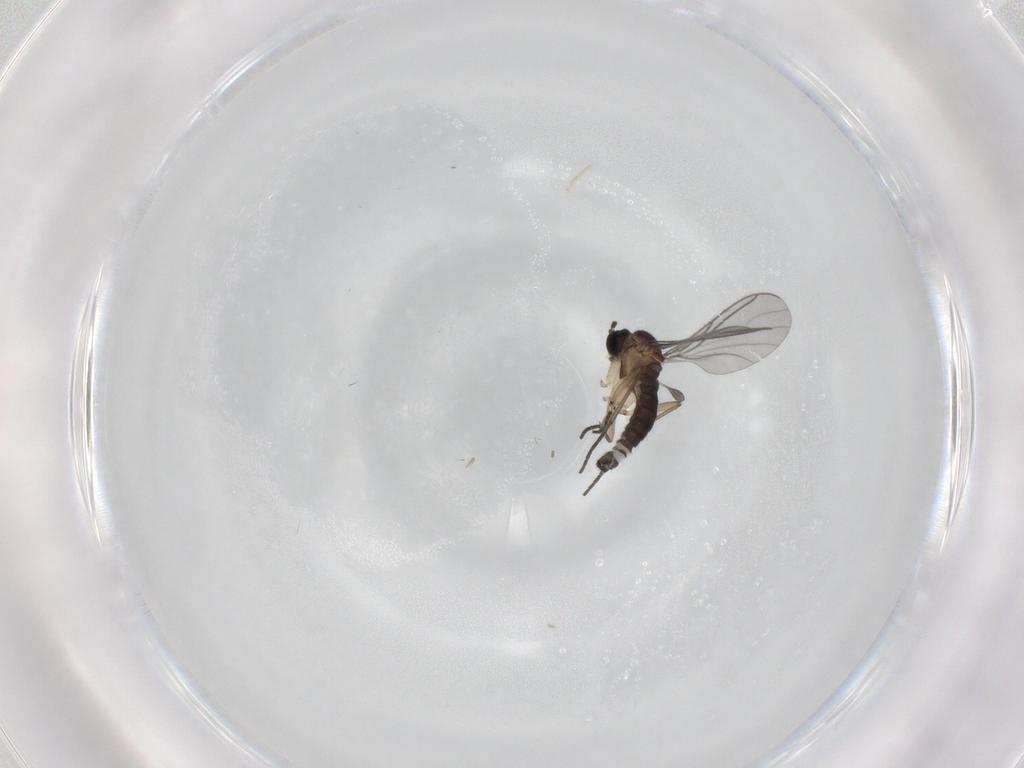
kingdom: Animalia
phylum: Arthropoda
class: Insecta
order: Diptera
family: Sciaridae
